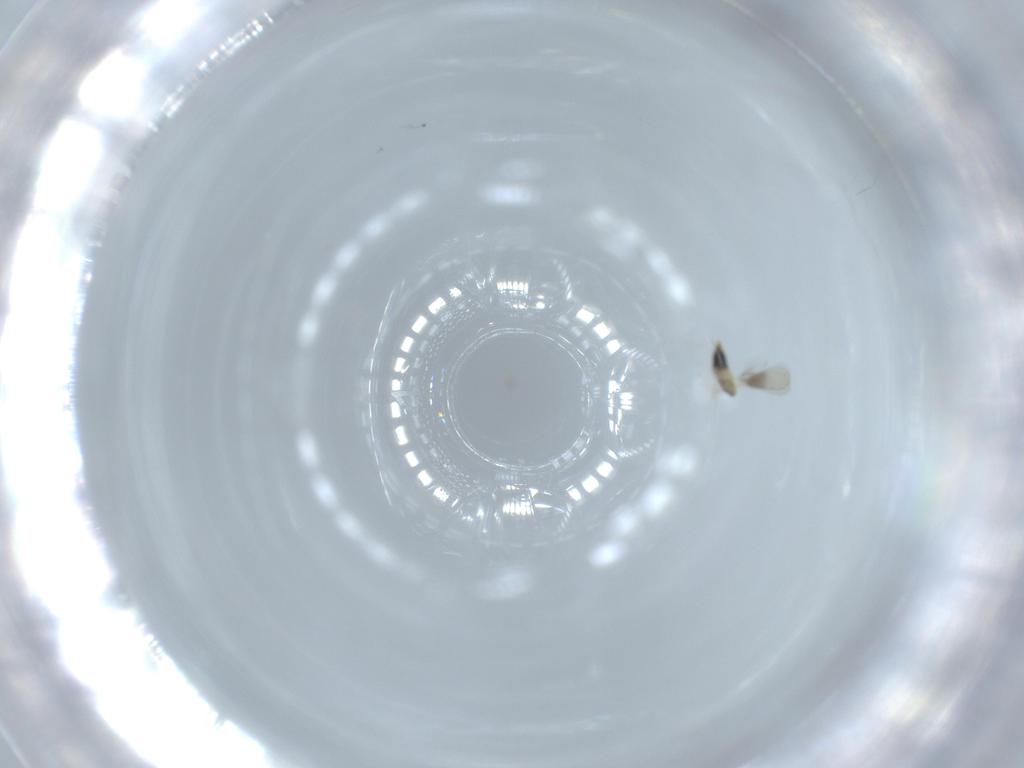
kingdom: Animalia
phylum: Arthropoda
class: Insecta
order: Hymenoptera
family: Aphelinidae
